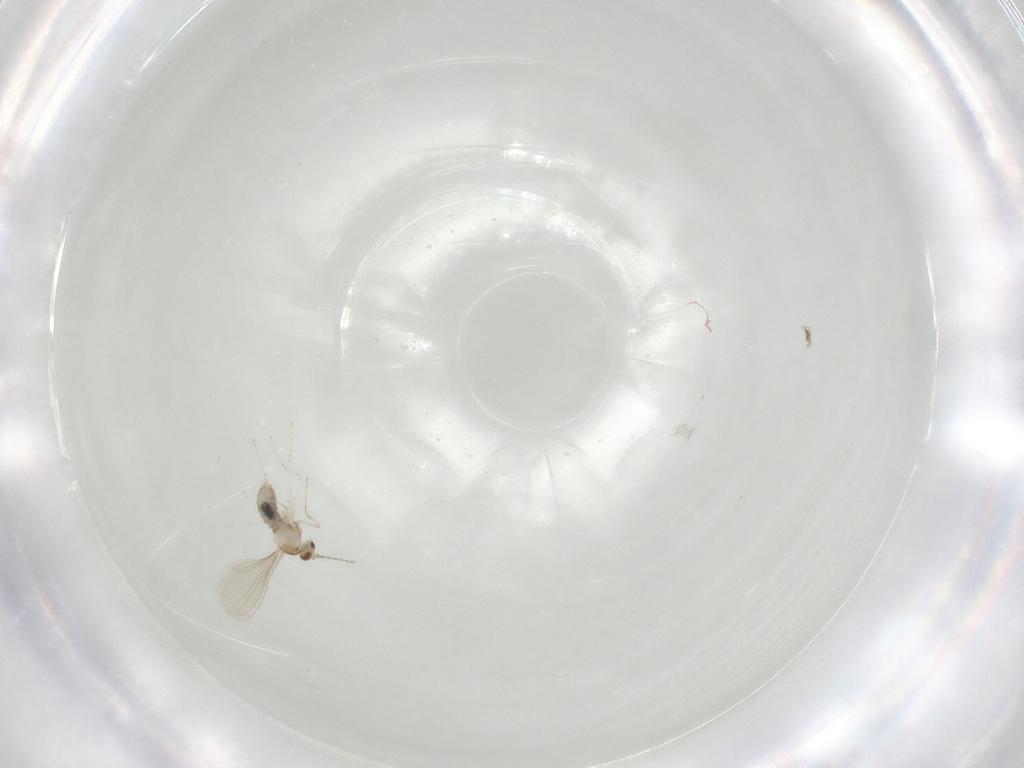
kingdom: Animalia
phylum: Arthropoda
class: Insecta
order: Diptera
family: Cecidomyiidae
